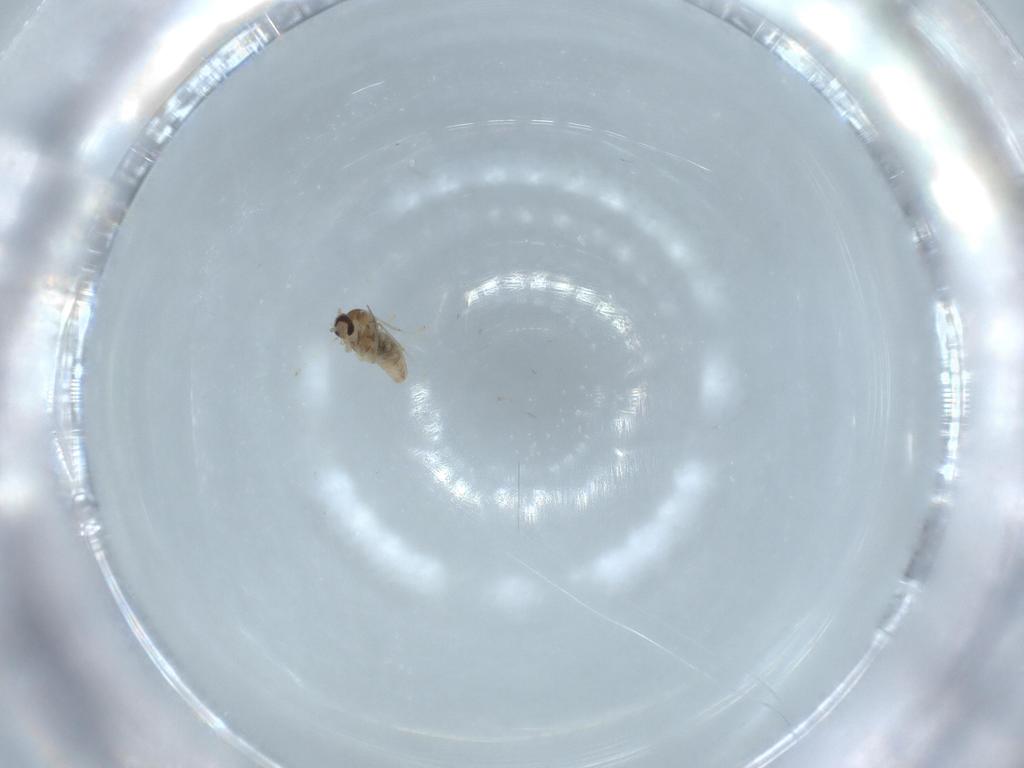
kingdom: Animalia
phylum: Arthropoda
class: Insecta
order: Diptera
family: Cecidomyiidae
